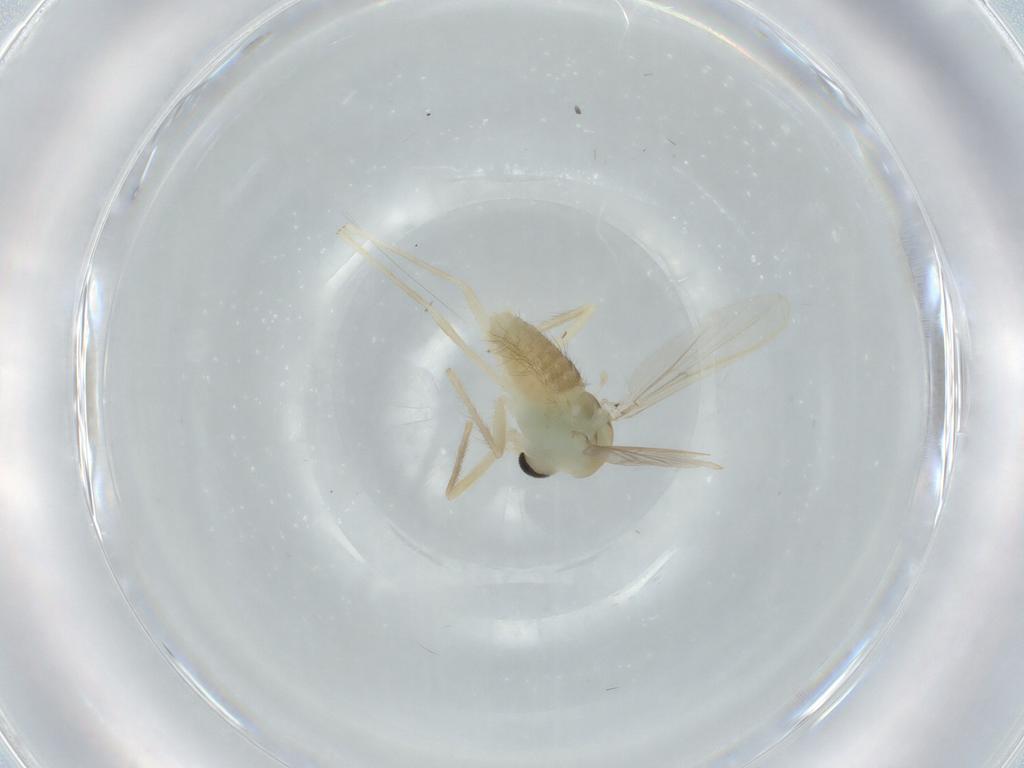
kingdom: Animalia
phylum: Arthropoda
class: Insecta
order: Diptera
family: Chironomidae
